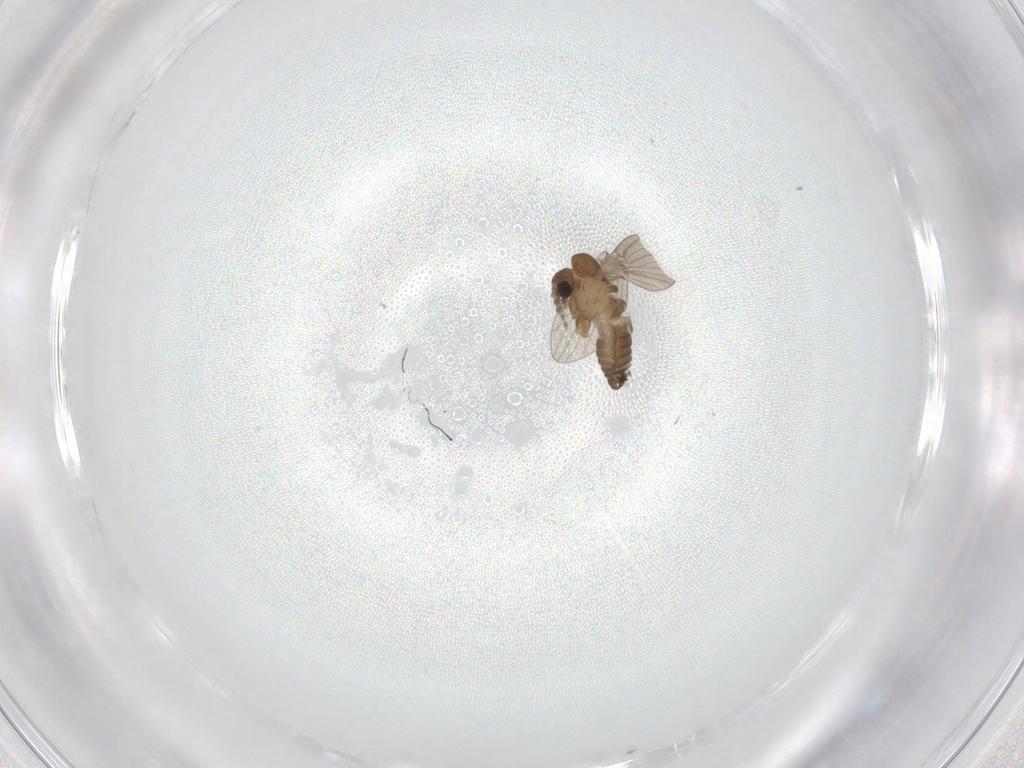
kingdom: Animalia
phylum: Arthropoda
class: Insecta
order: Diptera
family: Limoniidae
